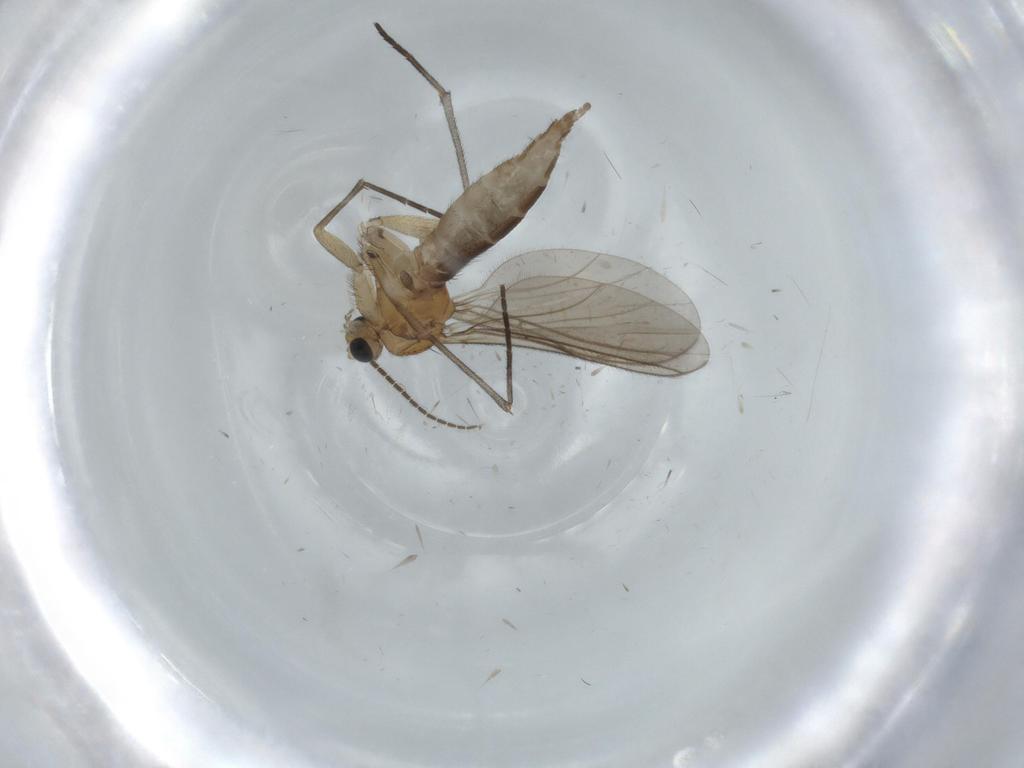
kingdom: Animalia
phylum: Arthropoda
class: Insecta
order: Diptera
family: Sciaridae
